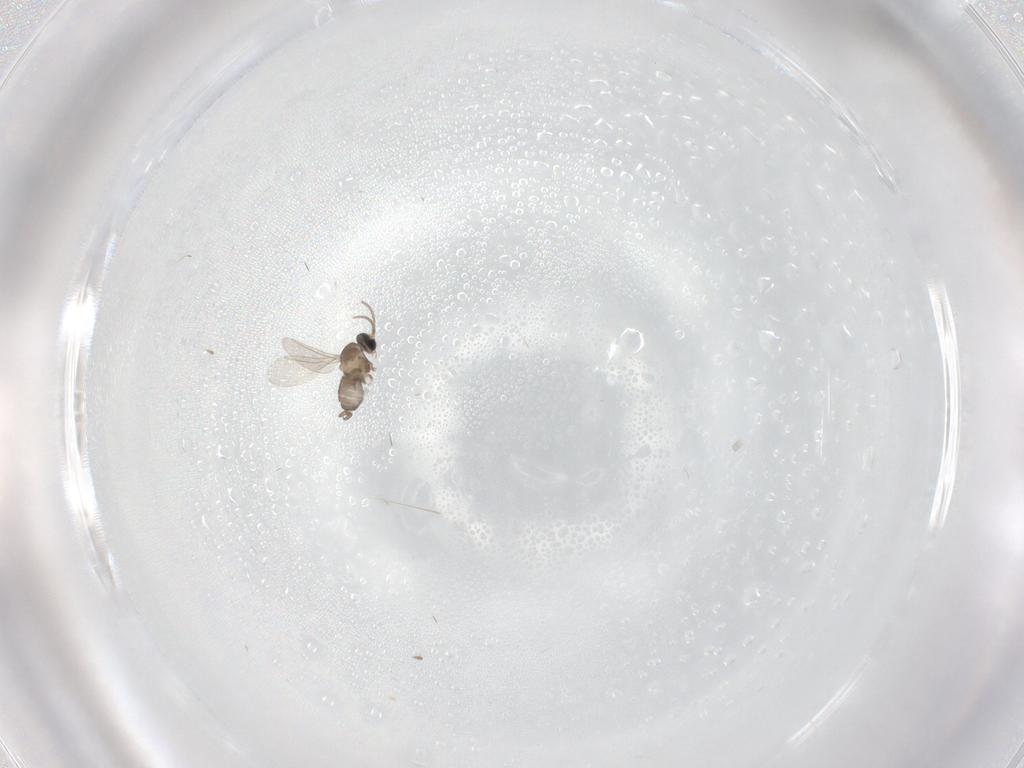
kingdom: Animalia
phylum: Arthropoda
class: Insecta
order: Diptera
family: Cecidomyiidae
